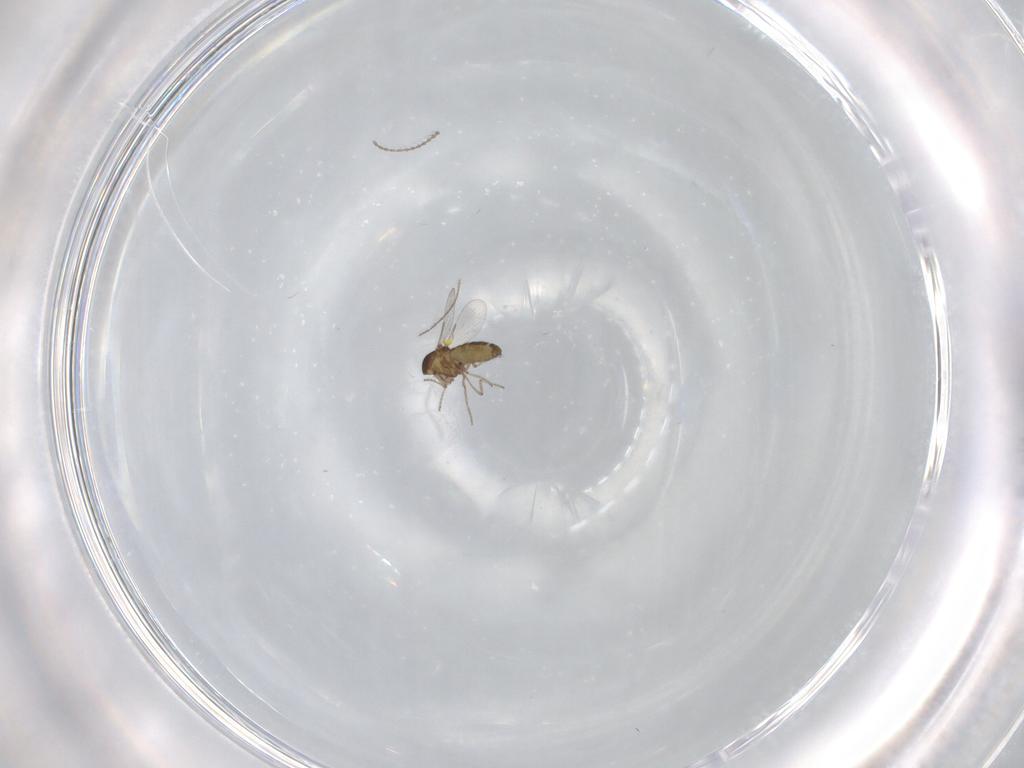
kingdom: Animalia
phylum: Arthropoda
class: Insecta
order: Diptera
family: Ceratopogonidae
